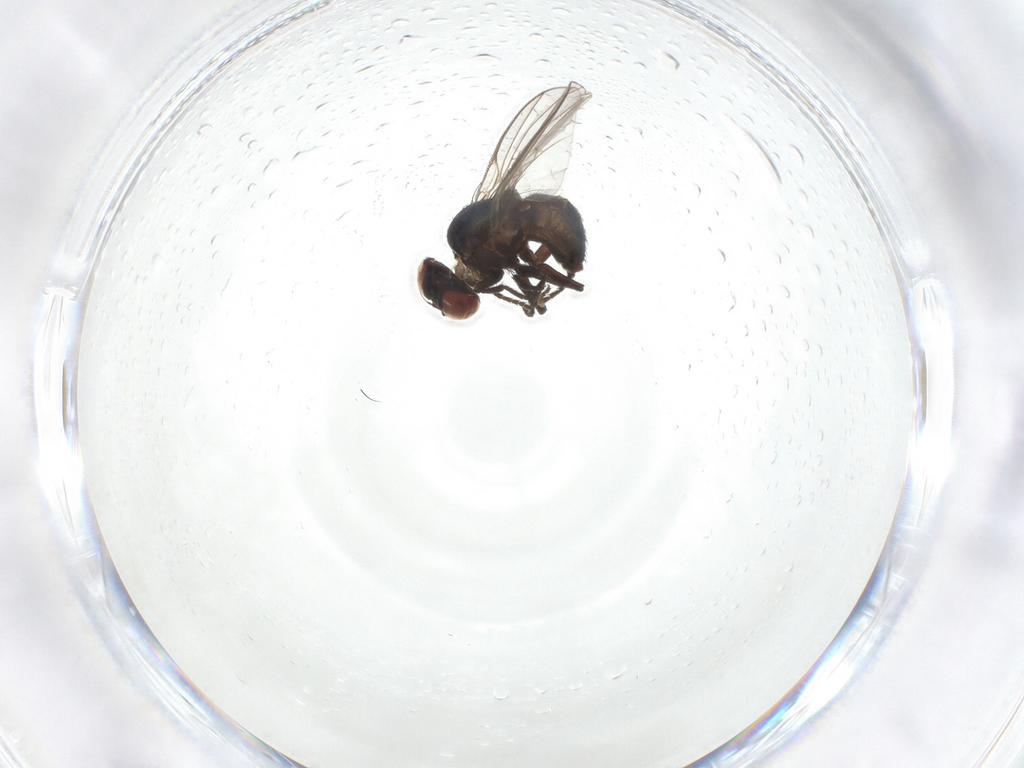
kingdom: Animalia
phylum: Arthropoda
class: Insecta
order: Diptera
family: Agromyzidae
